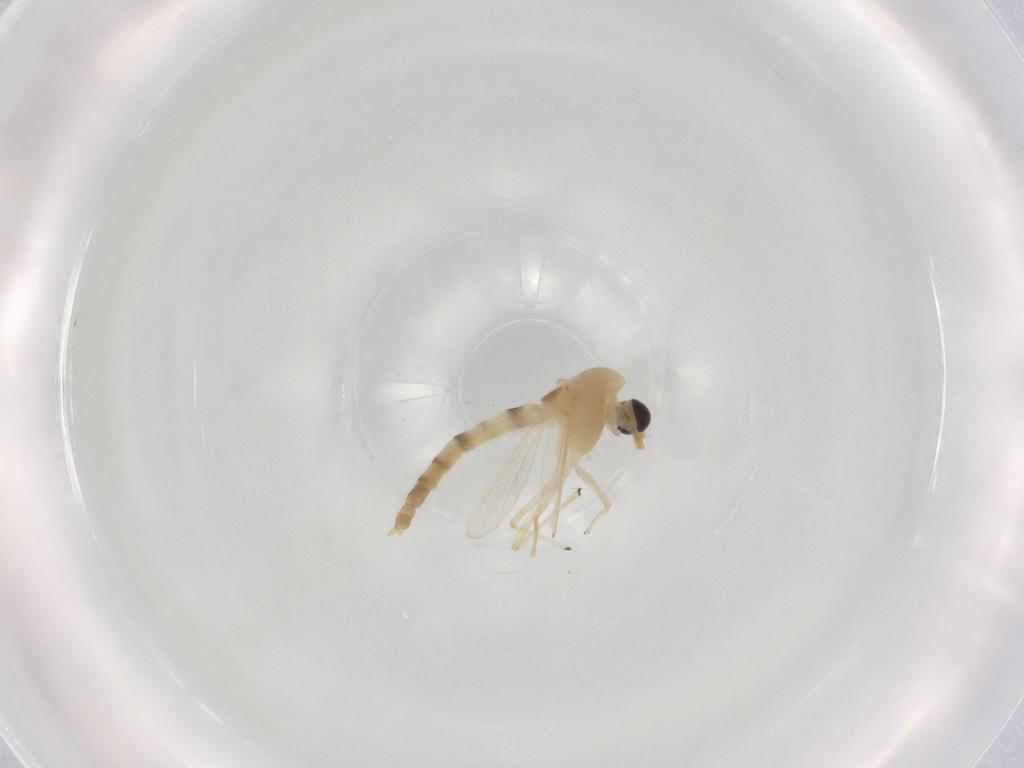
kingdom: Animalia
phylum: Arthropoda
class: Insecta
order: Diptera
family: Chironomidae
